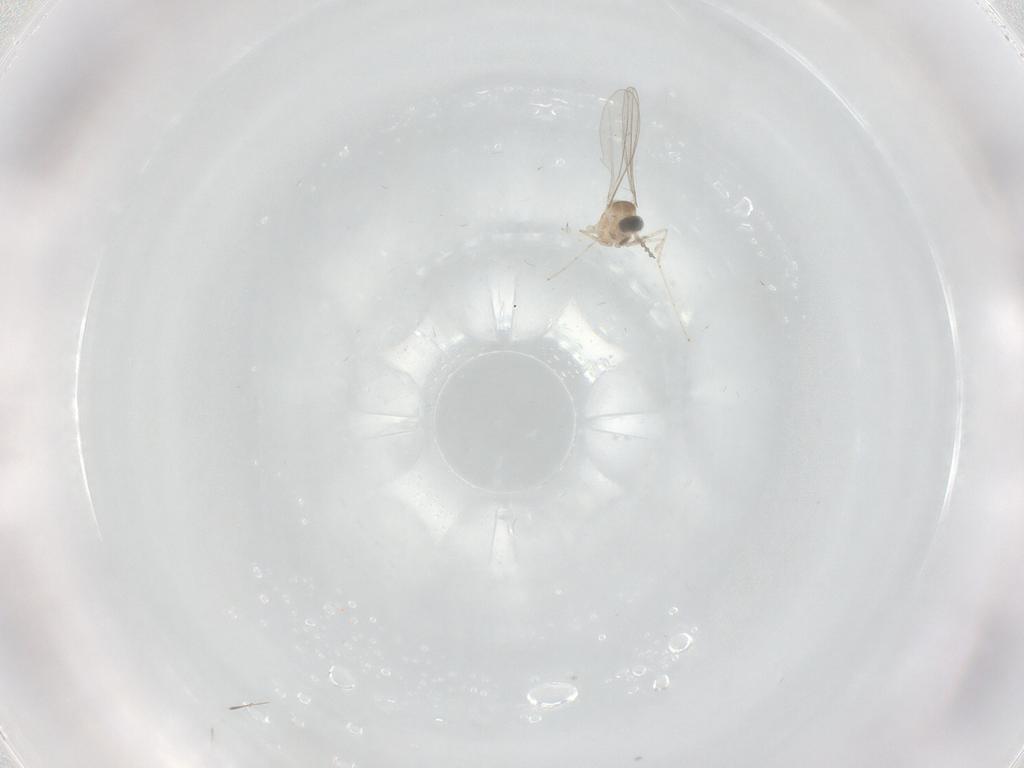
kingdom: Animalia
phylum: Arthropoda
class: Insecta
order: Diptera
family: Cecidomyiidae
